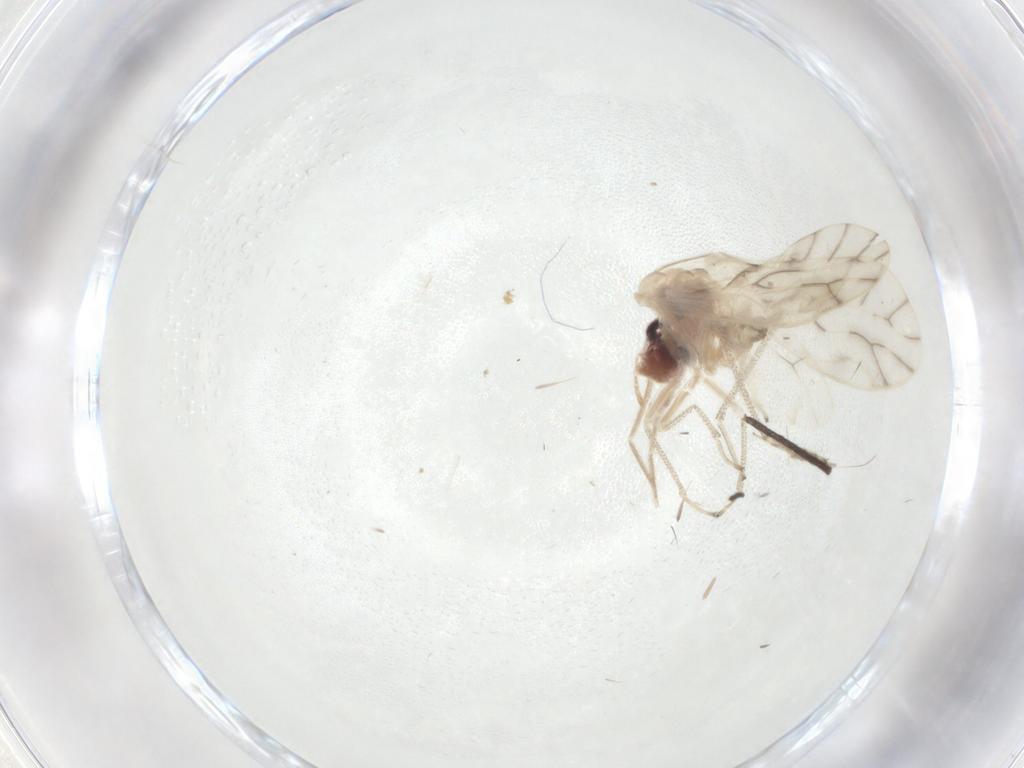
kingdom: Animalia
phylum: Arthropoda
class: Insecta
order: Psocodea
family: Caeciliusidae
